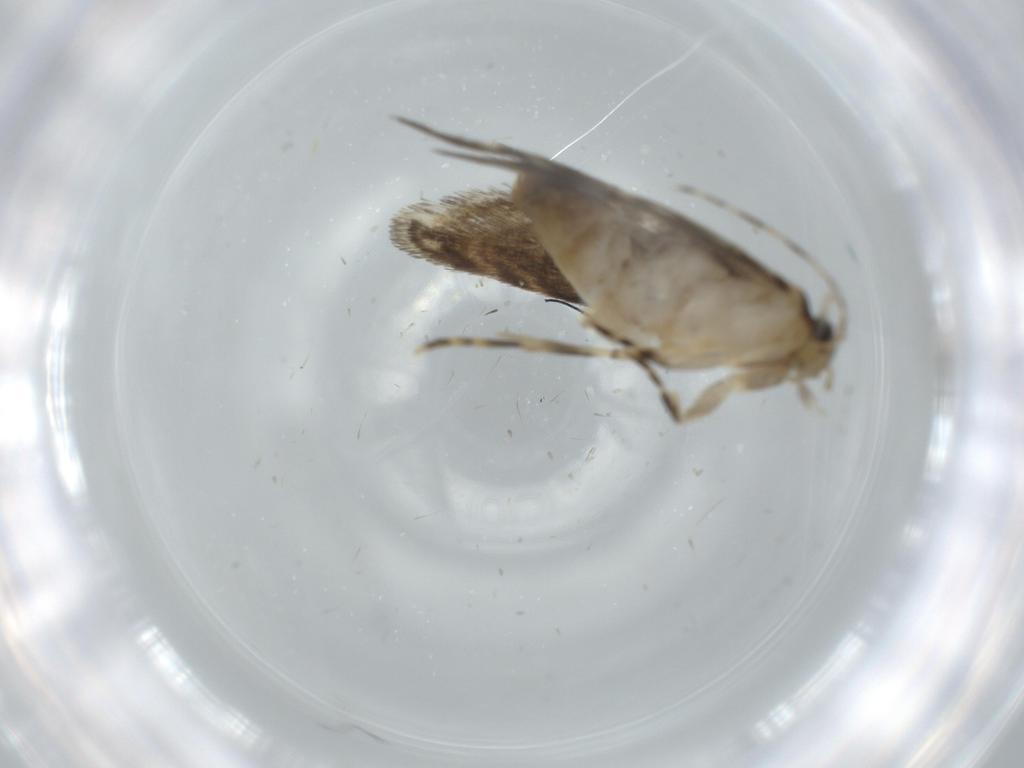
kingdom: Animalia
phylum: Arthropoda
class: Insecta
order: Lepidoptera
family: Tineidae
